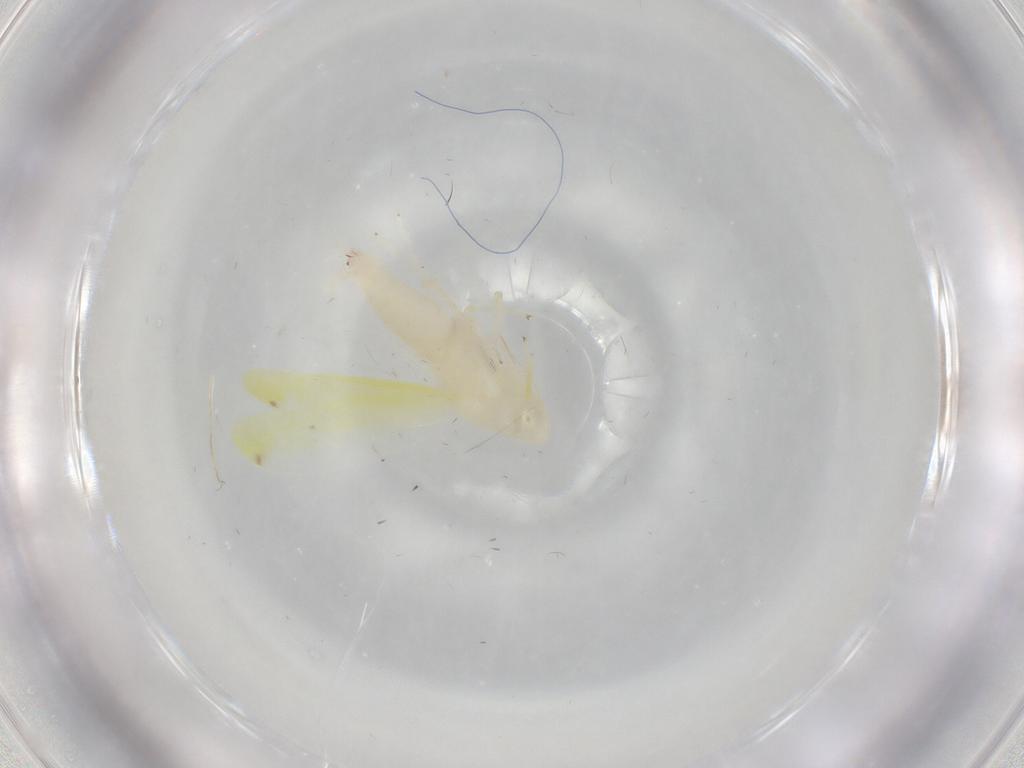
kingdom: Animalia
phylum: Arthropoda
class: Insecta
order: Hemiptera
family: Cicadellidae
